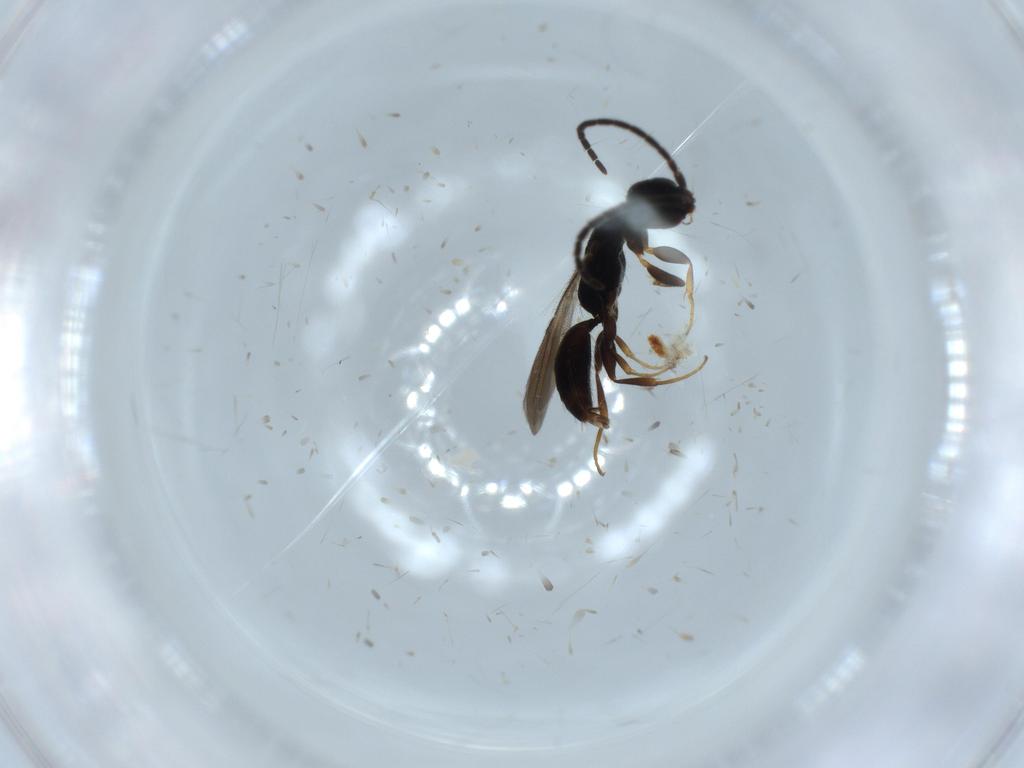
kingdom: Animalia
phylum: Arthropoda
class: Insecta
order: Hymenoptera
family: Bethylidae
